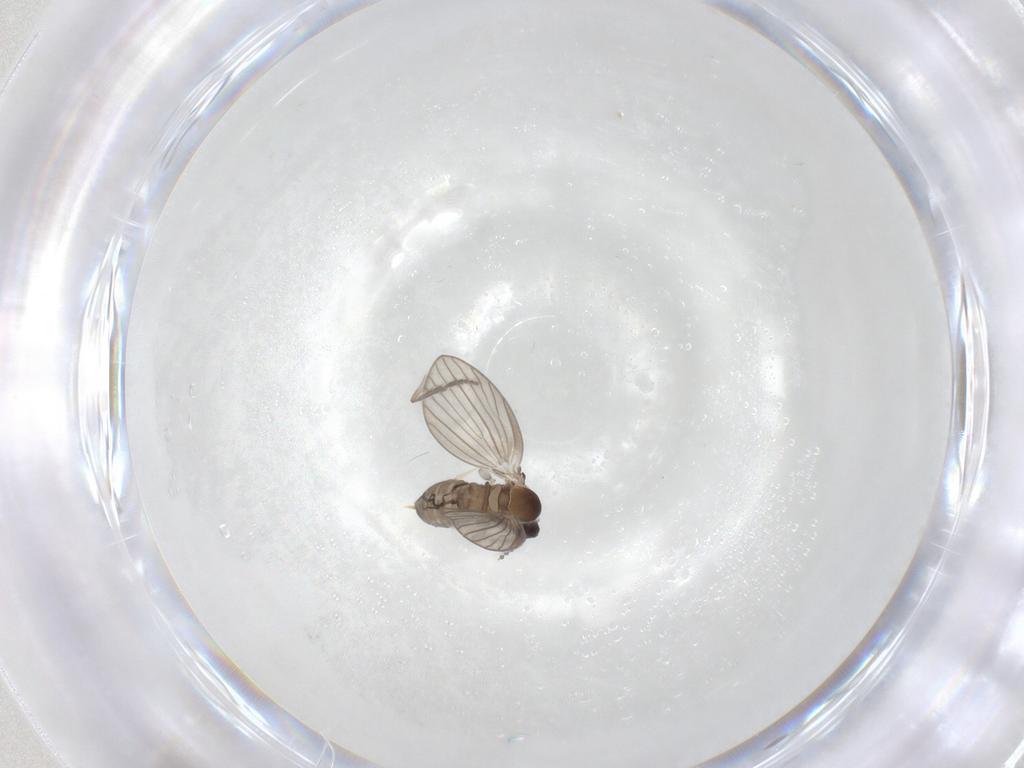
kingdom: Animalia
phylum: Arthropoda
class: Insecta
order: Diptera
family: Psychodidae
